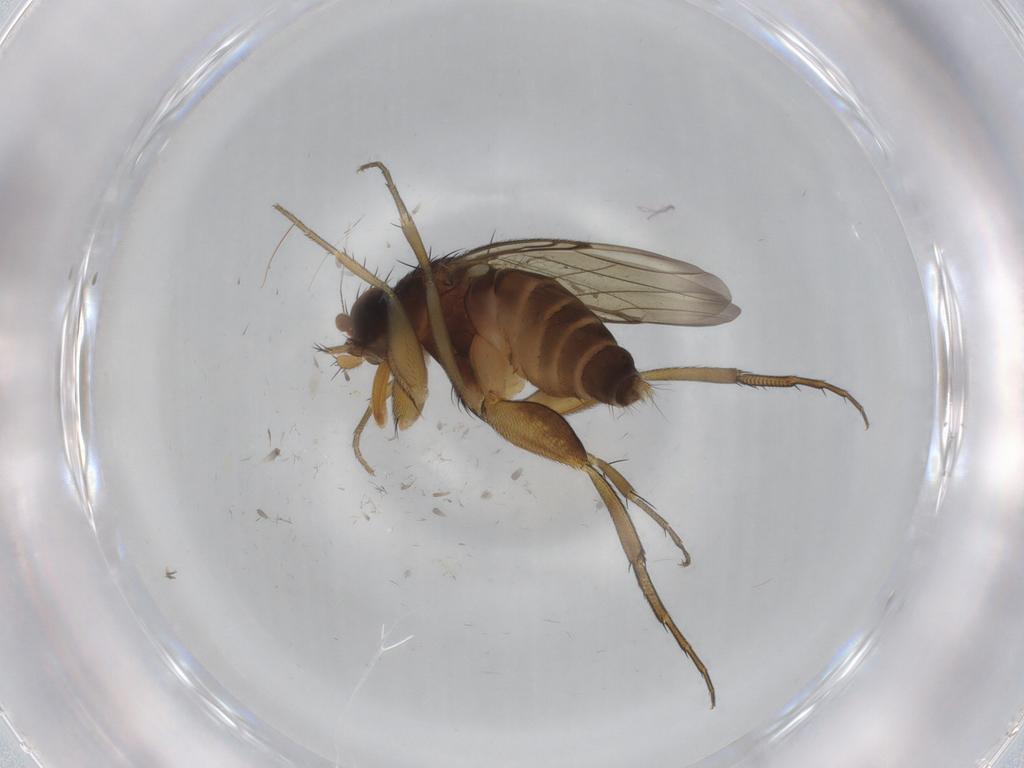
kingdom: Animalia
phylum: Arthropoda
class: Insecta
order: Diptera
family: Phoridae
